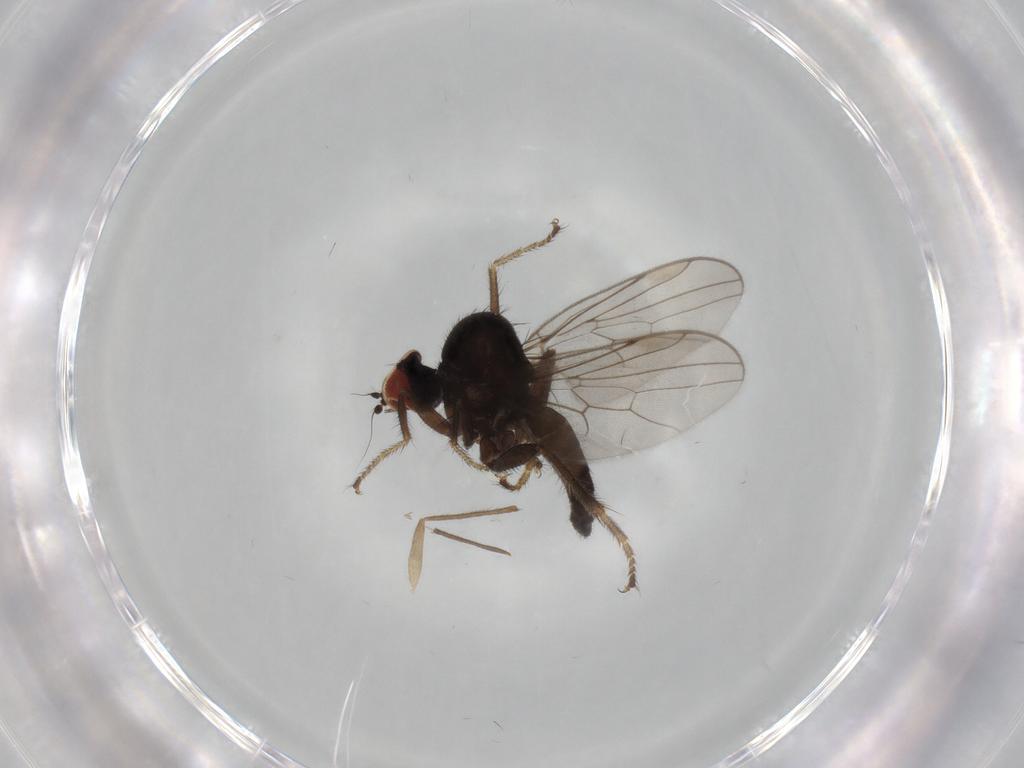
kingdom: Animalia
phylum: Arthropoda
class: Insecta
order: Diptera
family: Hybotidae
